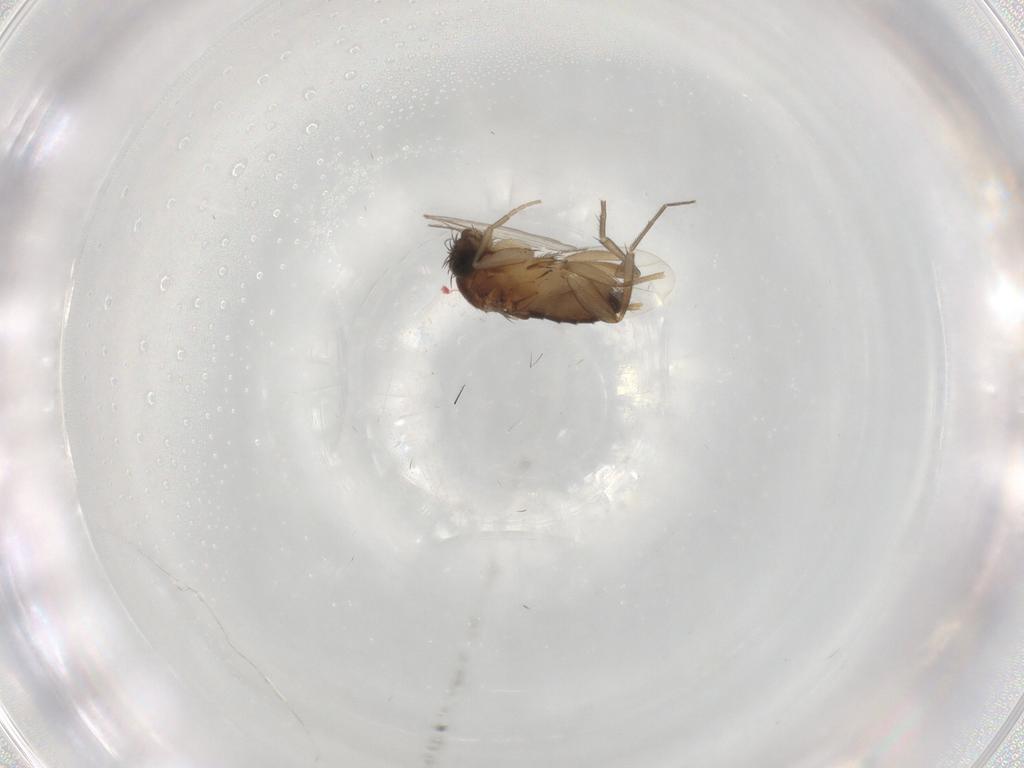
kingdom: Animalia
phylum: Arthropoda
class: Insecta
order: Diptera
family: Phoridae
